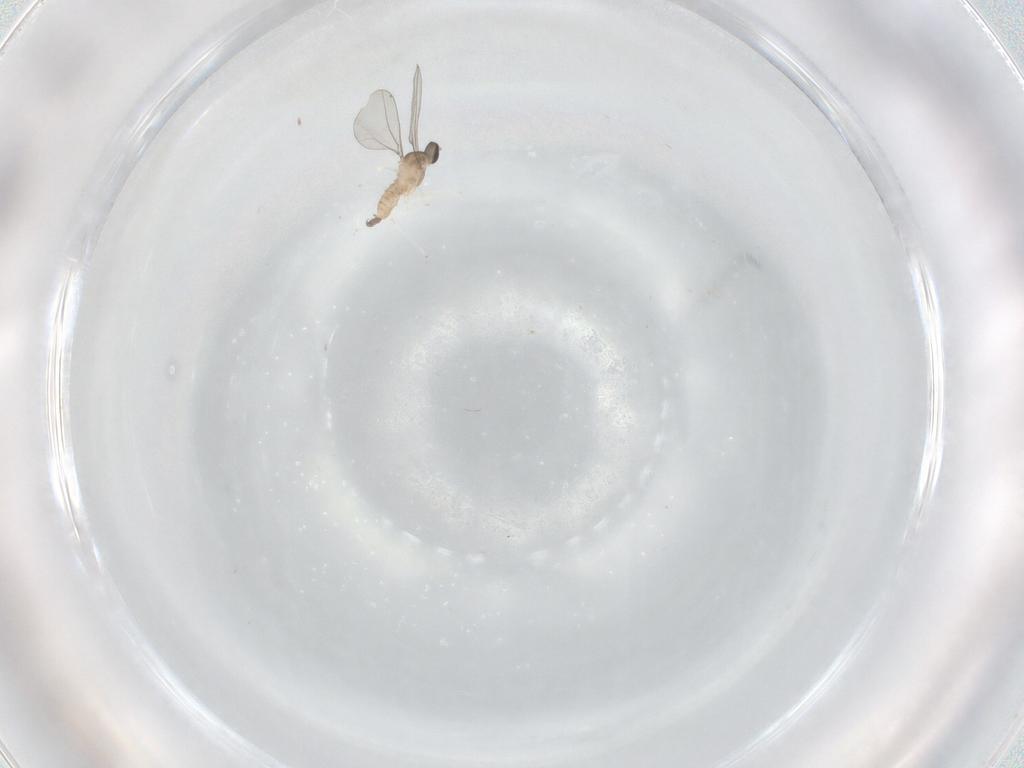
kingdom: Animalia
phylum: Arthropoda
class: Insecta
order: Diptera
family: Cecidomyiidae
